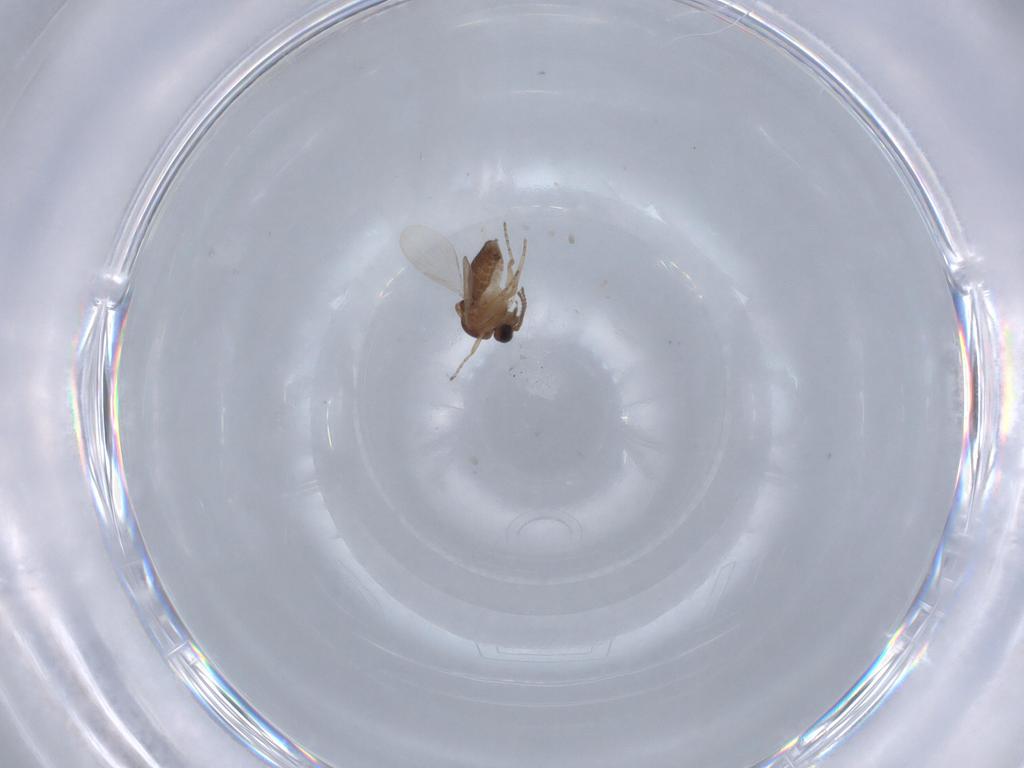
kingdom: Animalia
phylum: Arthropoda
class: Insecta
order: Diptera
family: Ceratopogonidae
